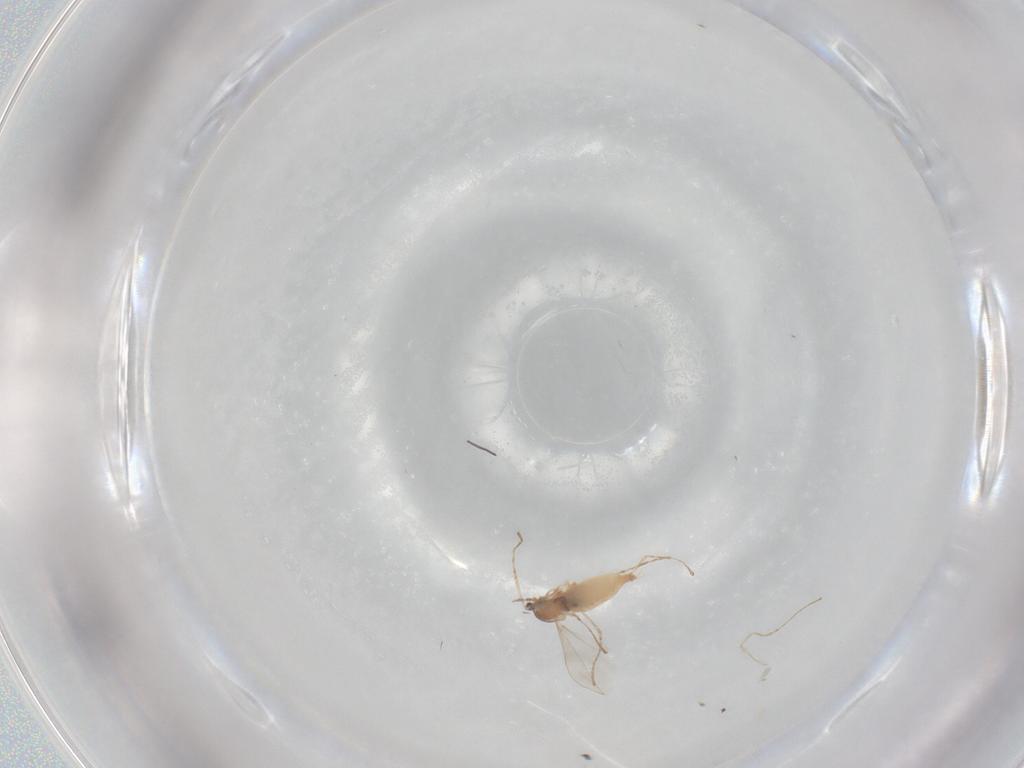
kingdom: Animalia
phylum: Arthropoda
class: Insecta
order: Diptera
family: Cecidomyiidae
